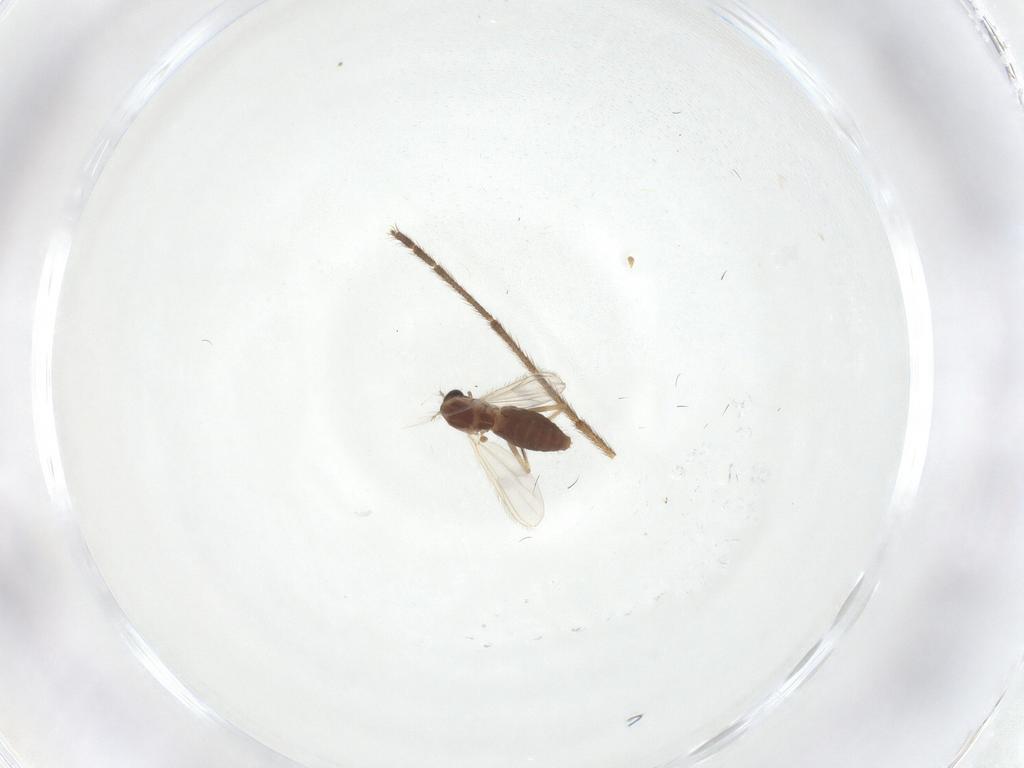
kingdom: Animalia
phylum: Arthropoda
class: Insecta
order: Diptera
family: Chironomidae
